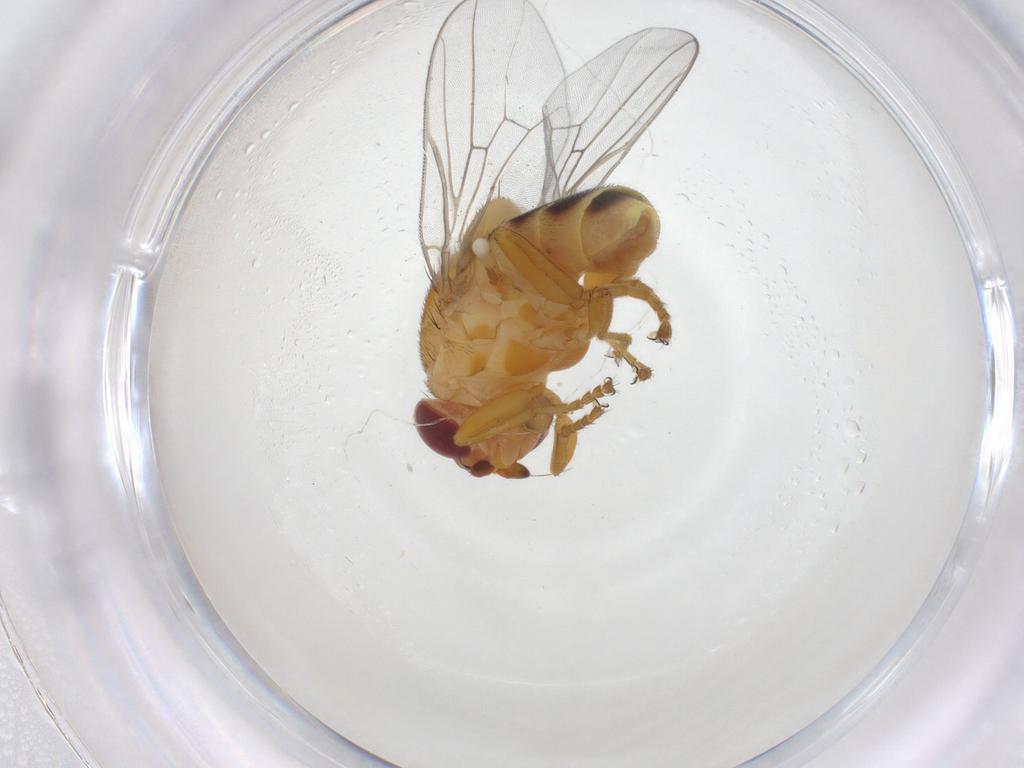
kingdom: Animalia
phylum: Arthropoda
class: Insecta
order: Diptera
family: Chloropidae
